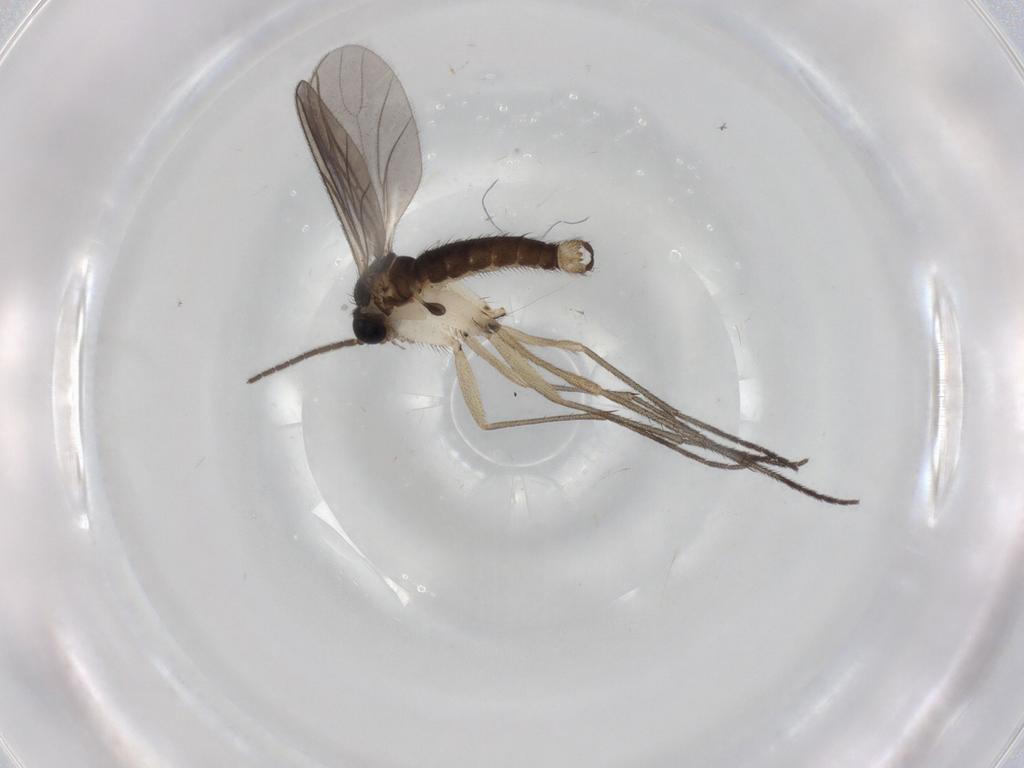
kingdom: Animalia
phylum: Arthropoda
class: Insecta
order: Diptera
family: Sciaridae
